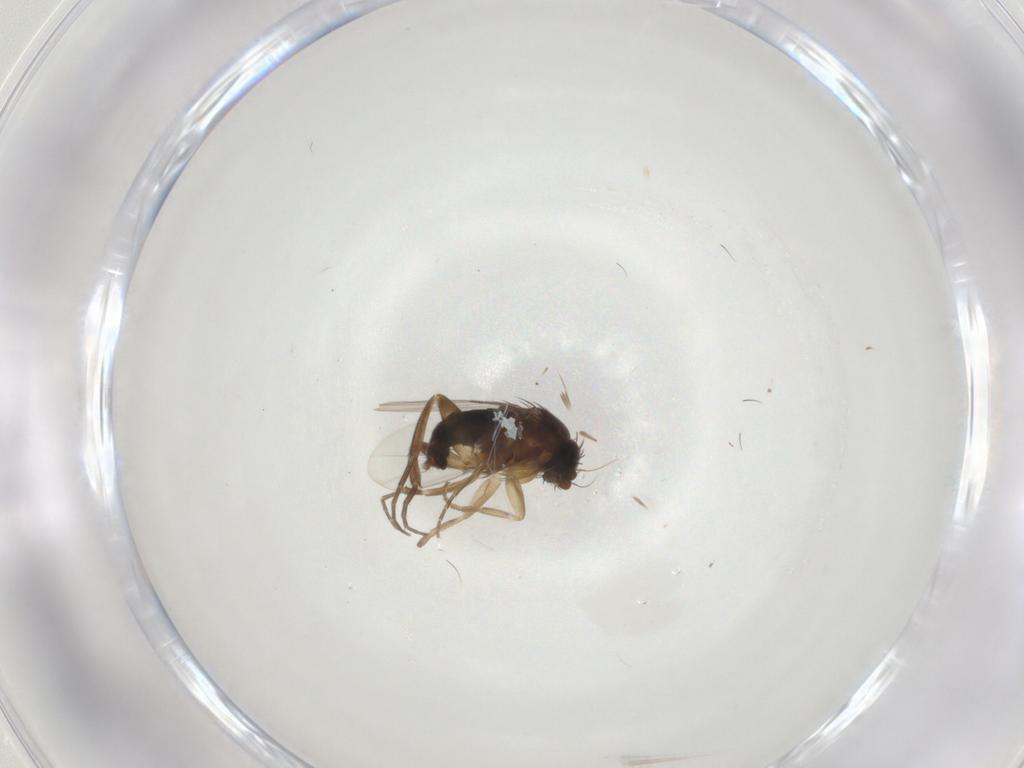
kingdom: Animalia
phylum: Arthropoda
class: Insecta
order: Diptera
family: Phoridae
